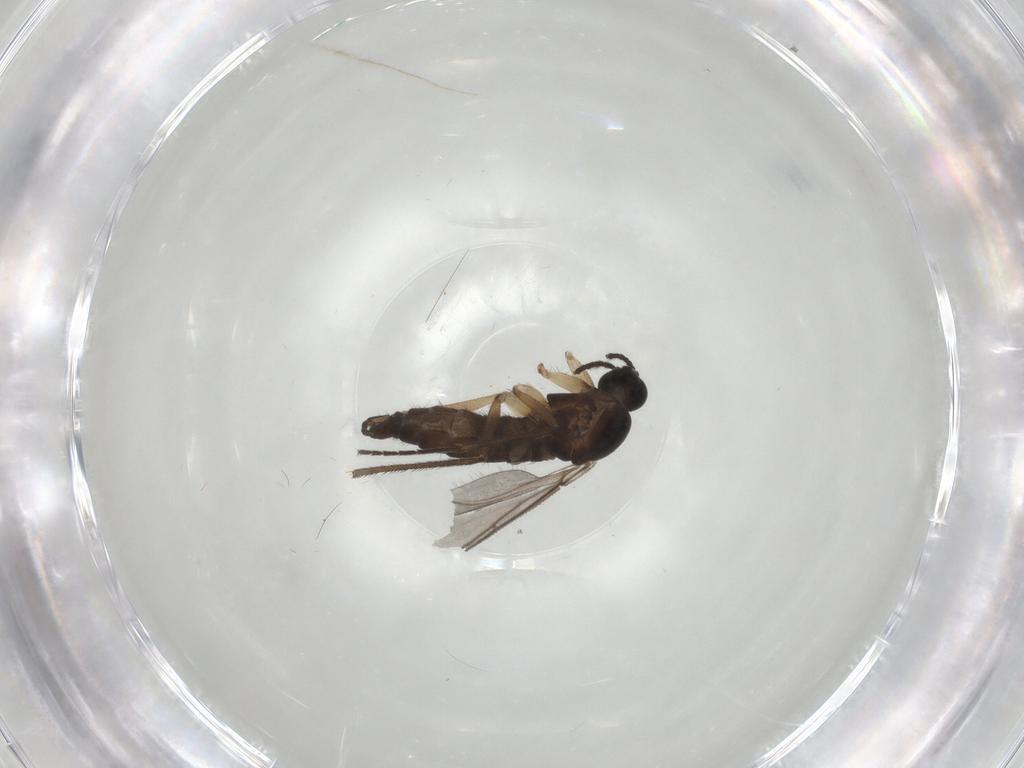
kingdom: Animalia
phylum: Arthropoda
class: Insecta
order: Diptera
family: Sciaridae
